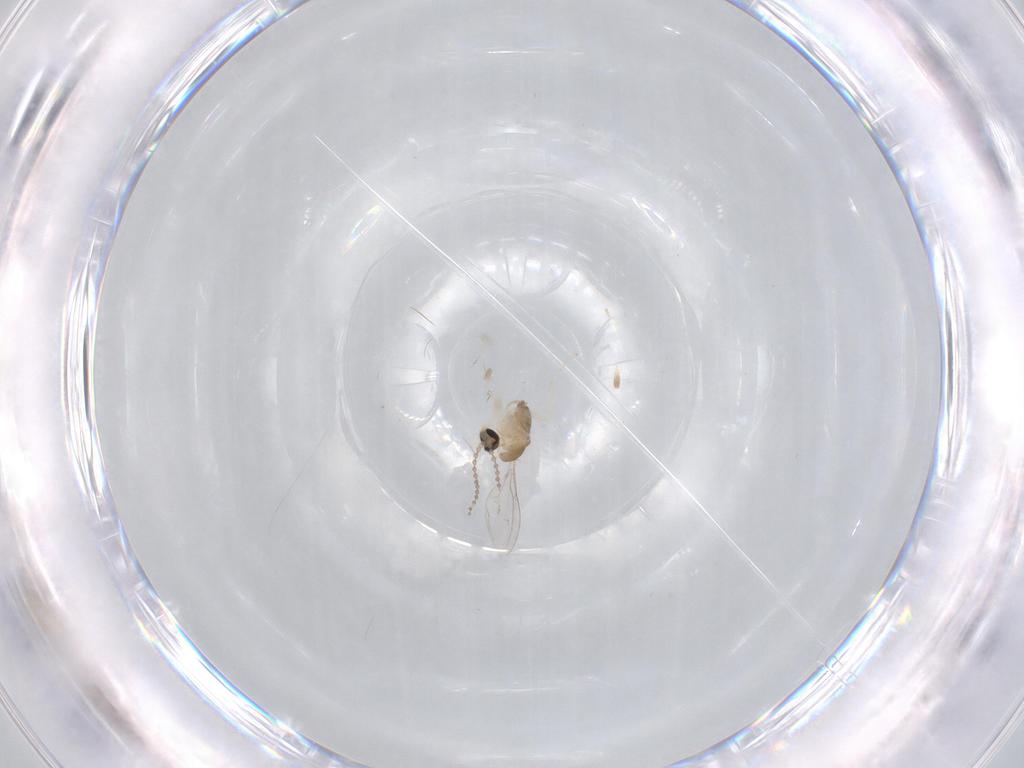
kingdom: Animalia
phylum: Arthropoda
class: Insecta
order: Diptera
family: Cecidomyiidae
